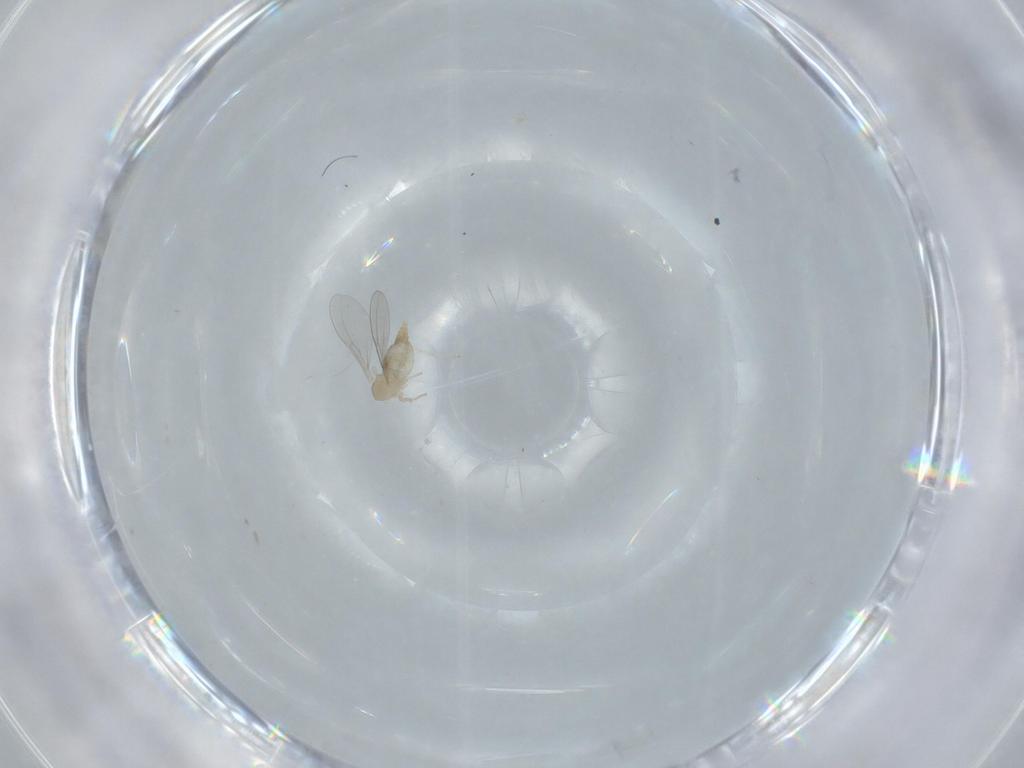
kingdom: Animalia
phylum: Arthropoda
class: Insecta
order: Diptera
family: Cecidomyiidae
